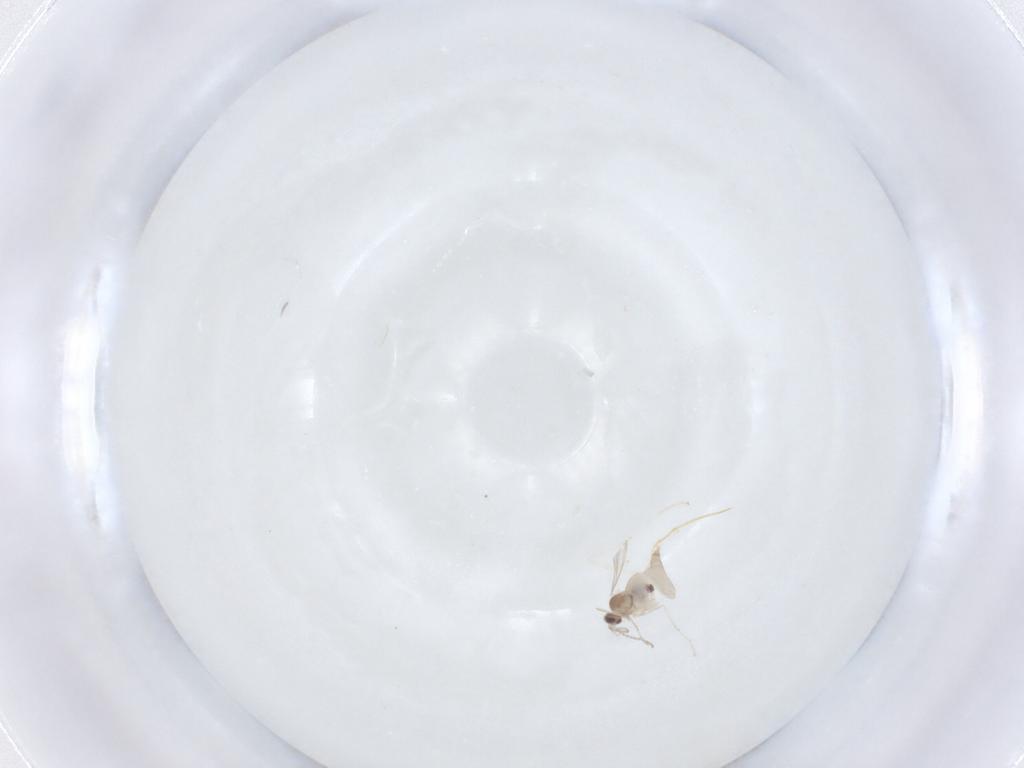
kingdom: Animalia
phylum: Arthropoda
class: Insecta
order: Diptera
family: Cecidomyiidae
